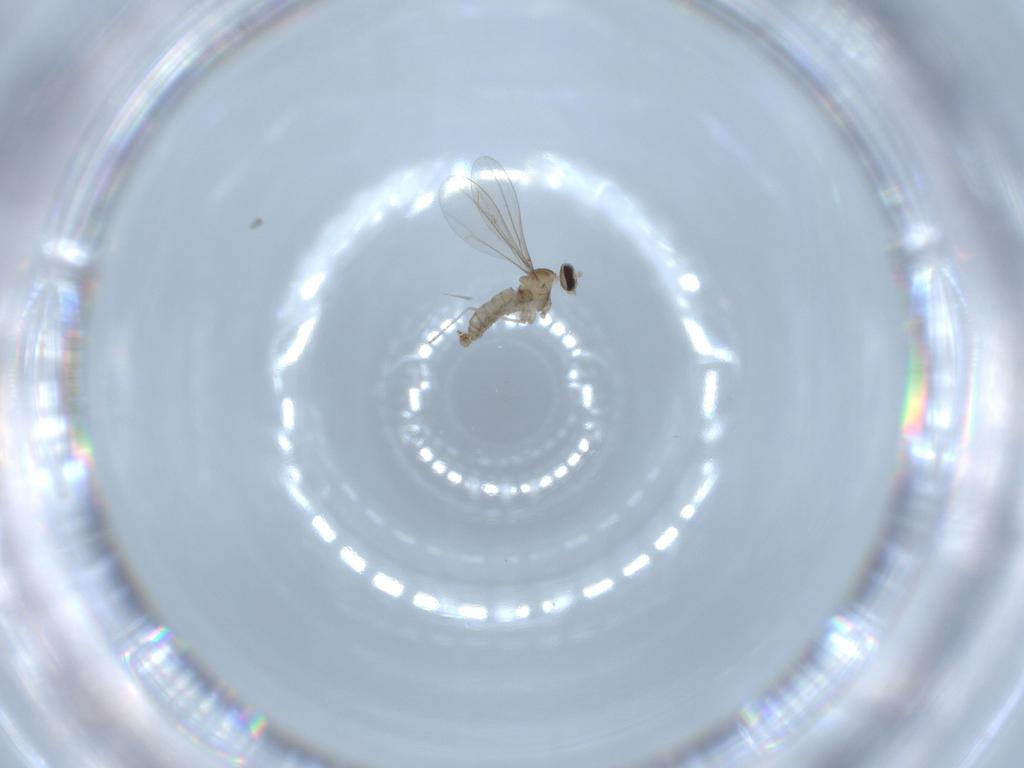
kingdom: Animalia
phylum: Arthropoda
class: Insecta
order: Diptera
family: Cecidomyiidae
